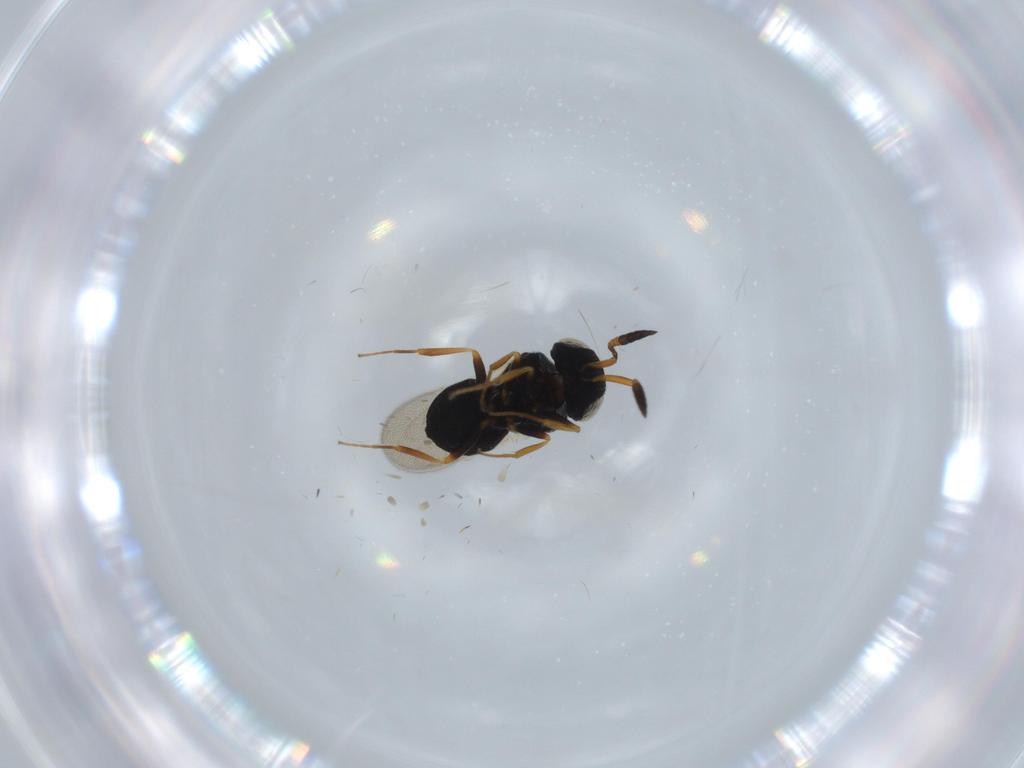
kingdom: Animalia
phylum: Arthropoda
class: Insecta
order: Hymenoptera
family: Scelionidae
